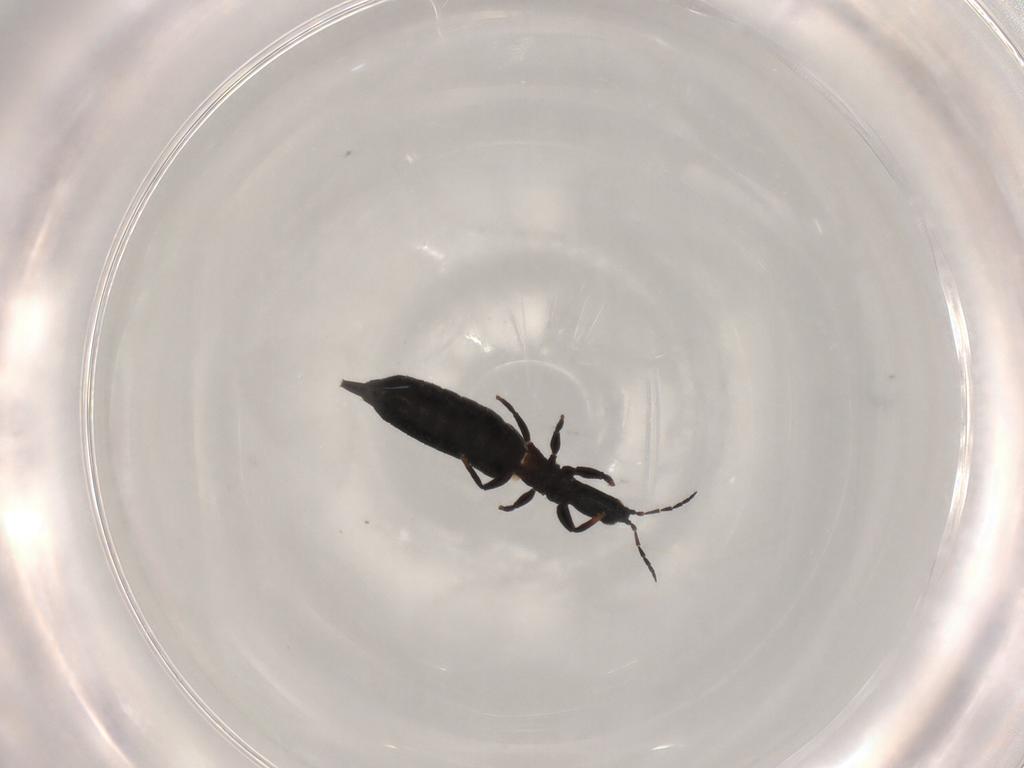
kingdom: Animalia
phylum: Arthropoda
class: Insecta
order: Thysanoptera
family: Phlaeothripidae
